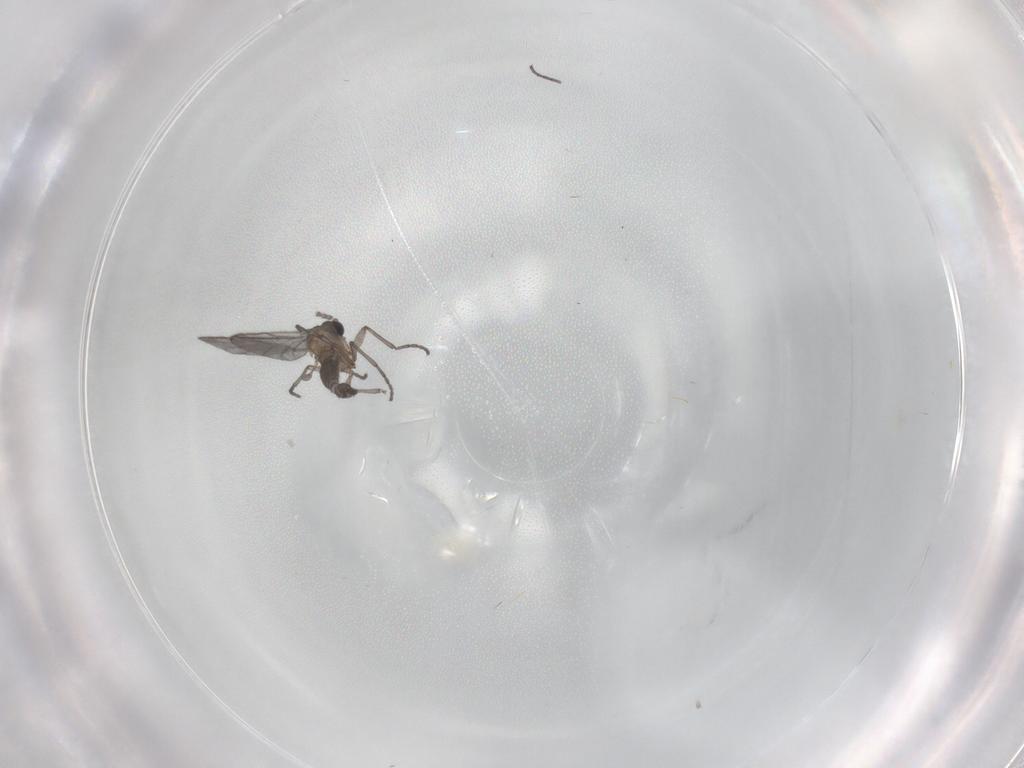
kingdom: Animalia
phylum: Arthropoda
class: Insecta
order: Diptera
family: Sciaridae
